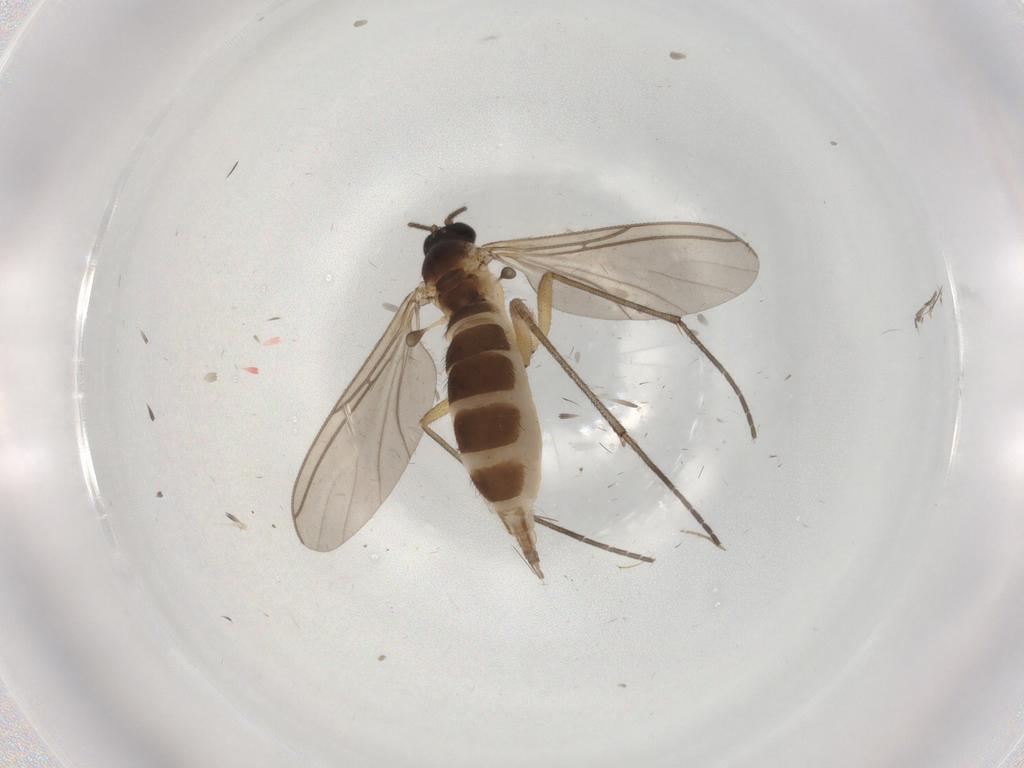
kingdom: Animalia
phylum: Arthropoda
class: Insecta
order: Diptera
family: Sciaridae
